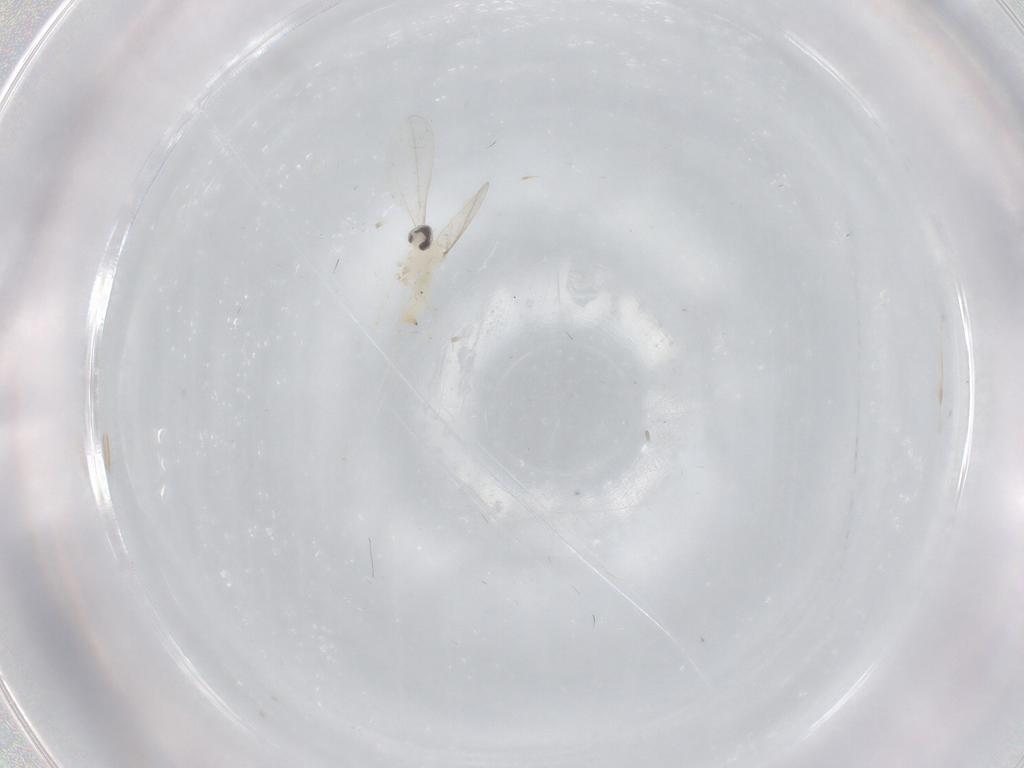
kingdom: Animalia
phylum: Arthropoda
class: Insecta
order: Diptera
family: Cecidomyiidae
